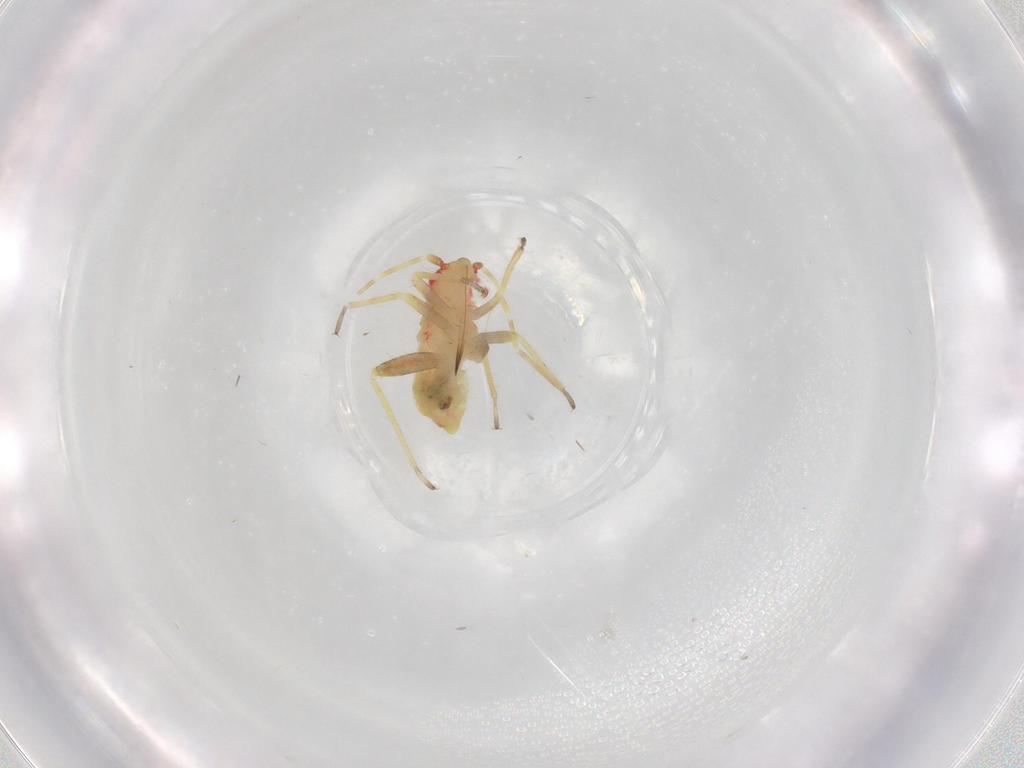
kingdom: Animalia
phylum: Arthropoda
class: Insecta
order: Hemiptera
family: Miridae
